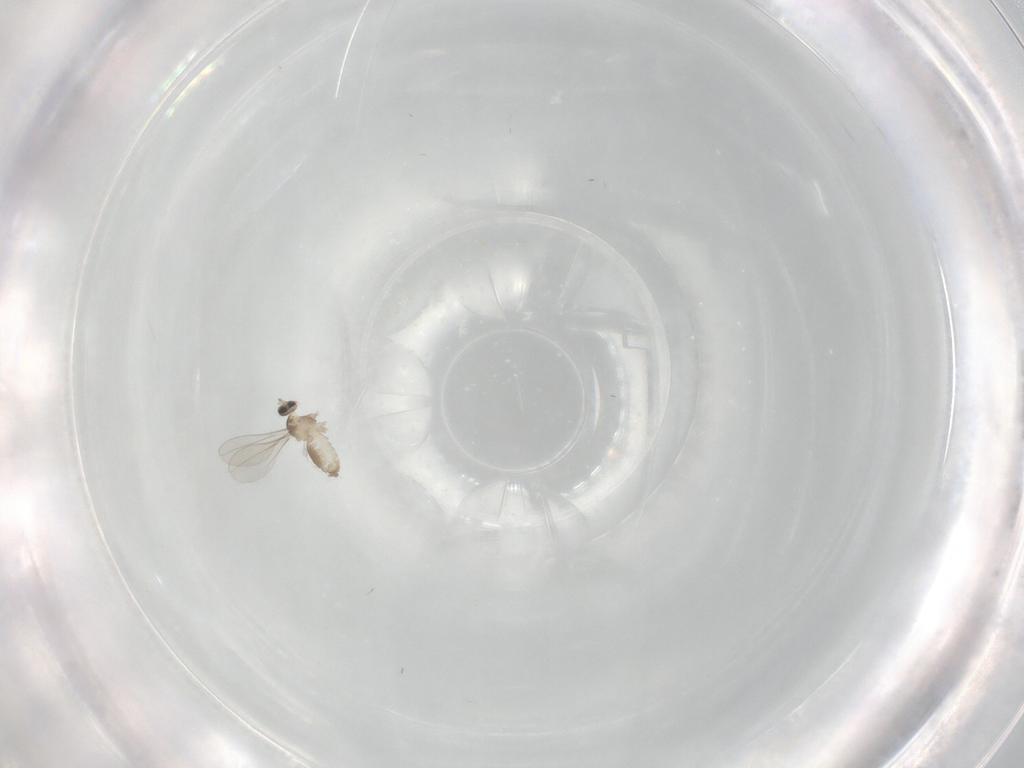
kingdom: Animalia
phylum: Arthropoda
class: Insecta
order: Diptera
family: Cecidomyiidae
